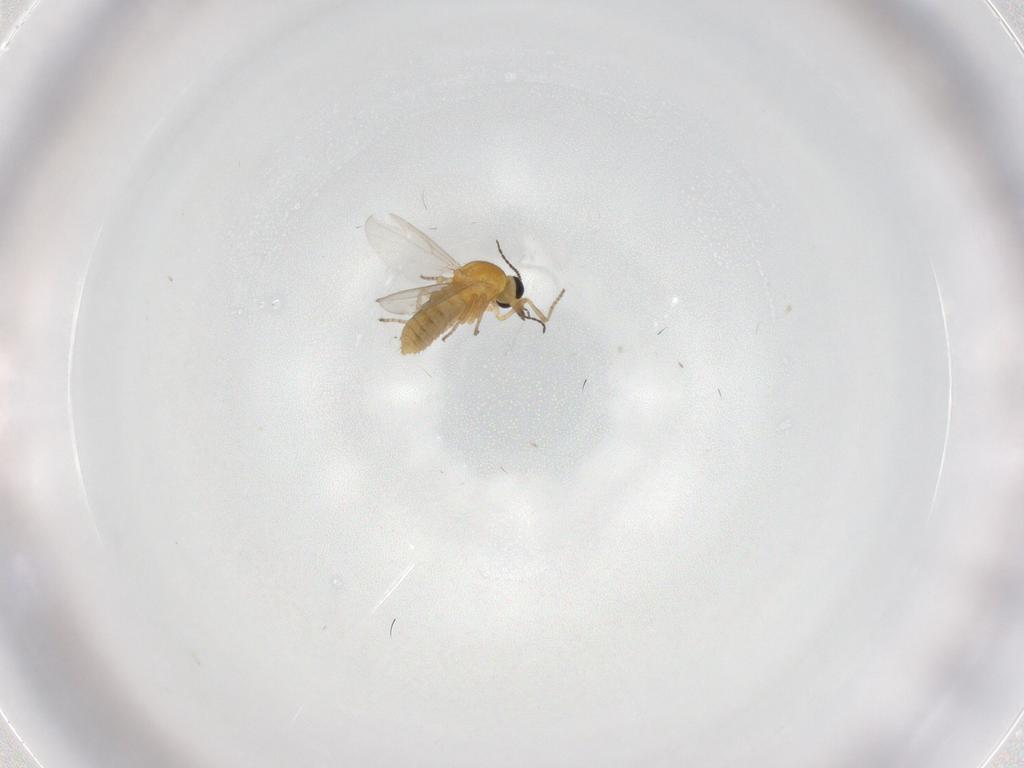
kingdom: Animalia
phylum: Arthropoda
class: Insecta
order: Diptera
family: Ceratopogonidae
